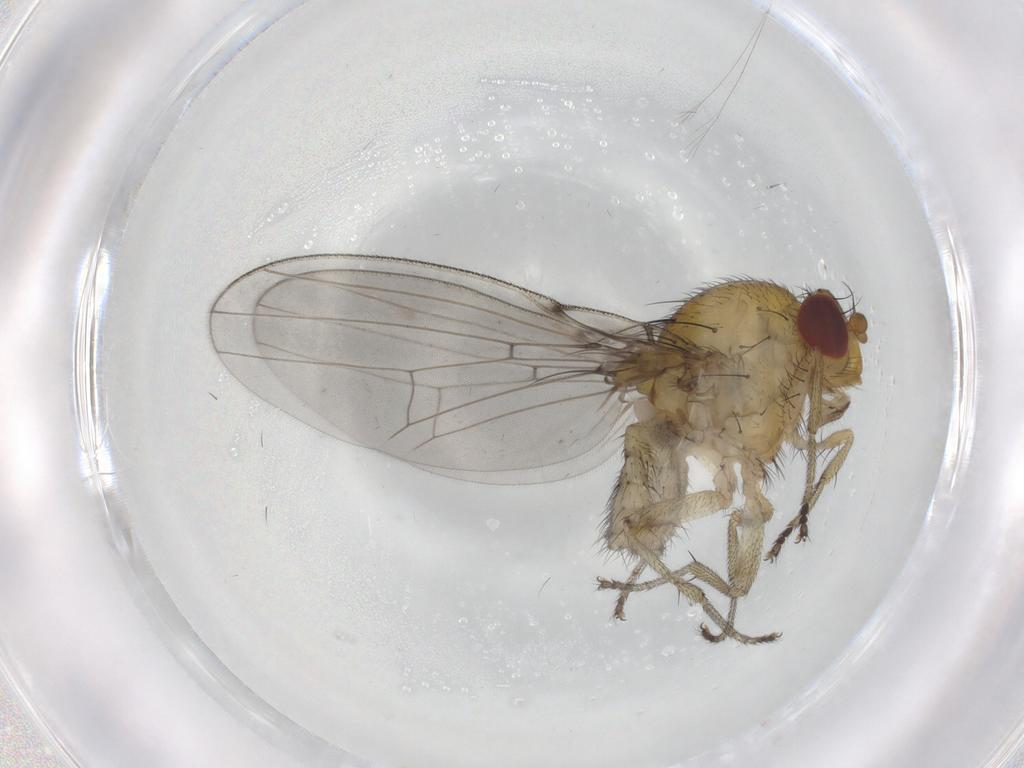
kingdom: Animalia
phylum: Arthropoda
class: Insecta
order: Diptera
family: Sciaridae
